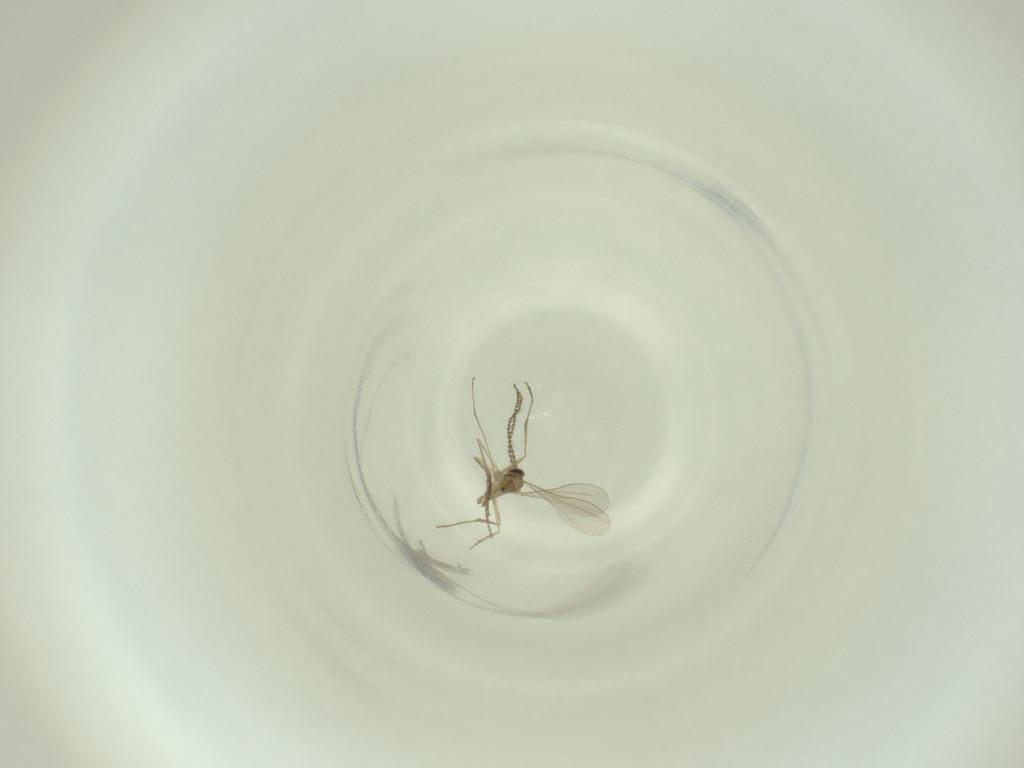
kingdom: Animalia
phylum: Arthropoda
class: Insecta
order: Diptera
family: Cecidomyiidae
